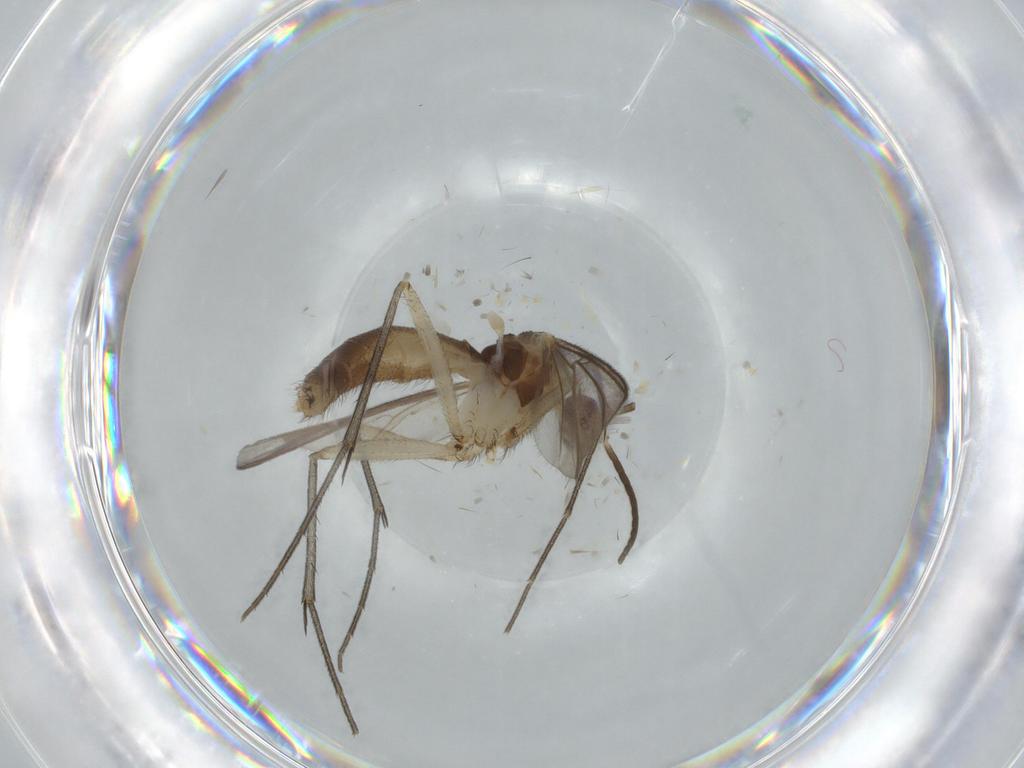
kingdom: Animalia
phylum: Arthropoda
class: Insecta
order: Diptera
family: Mycetophilidae
